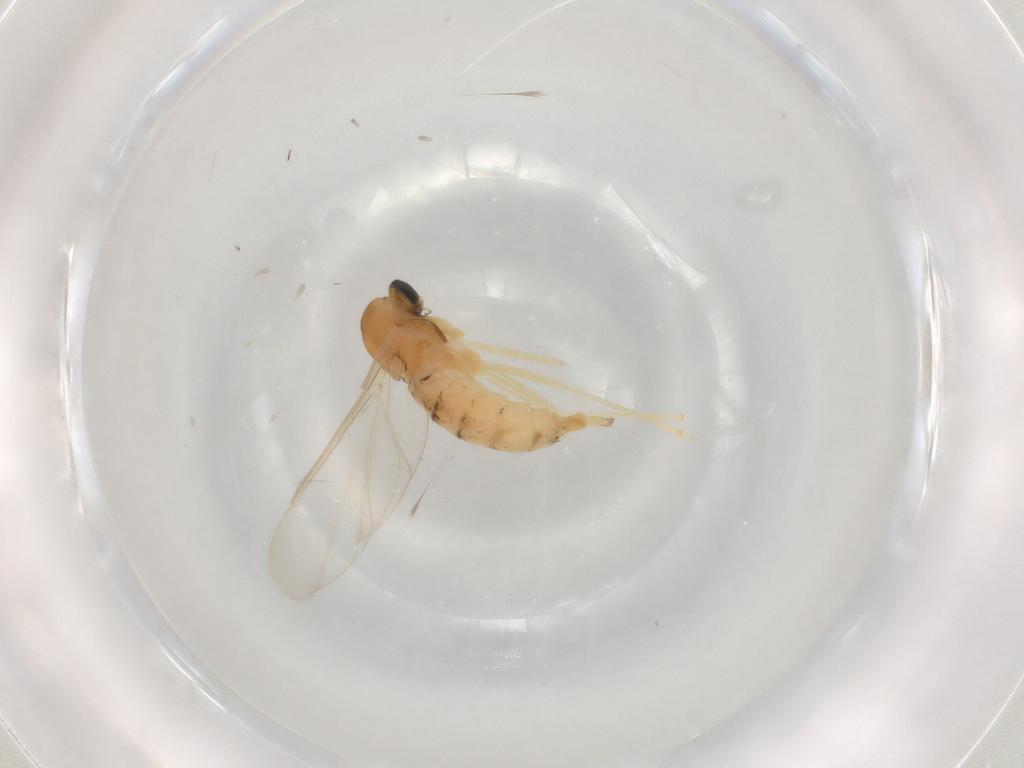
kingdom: Animalia
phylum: Arthropoda
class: Insecta
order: Diptera
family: Cecidomyiidae
